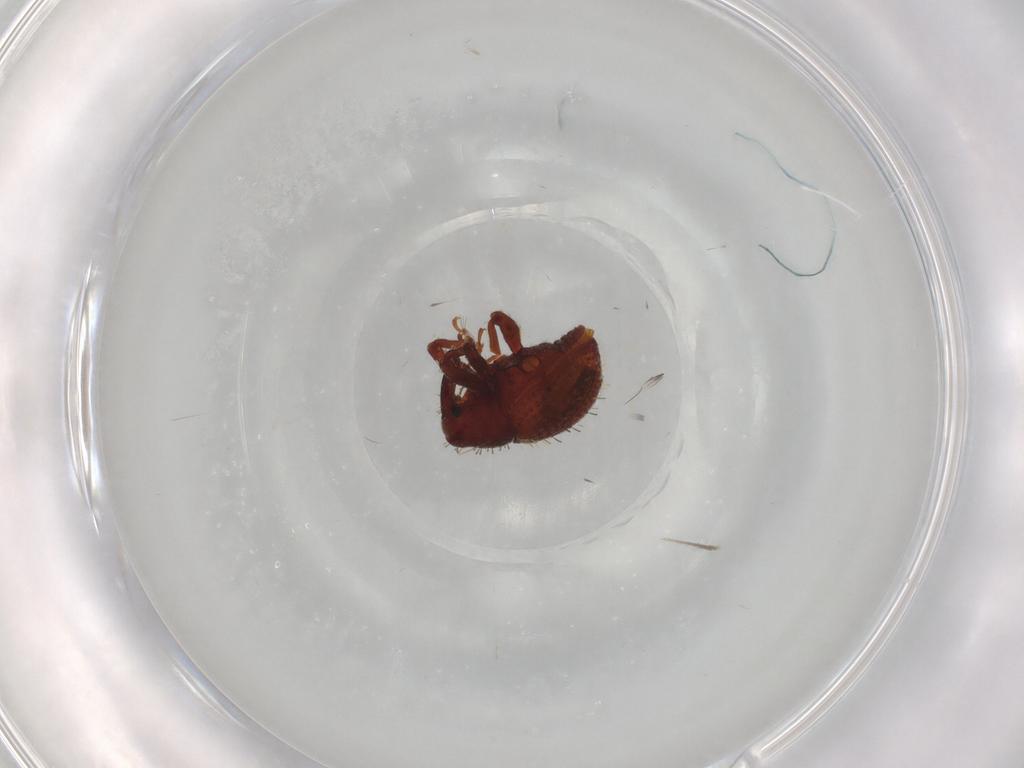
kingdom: Animalia
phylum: Arthropoda
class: Insecta
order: Coleoptera
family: Curculionidae
